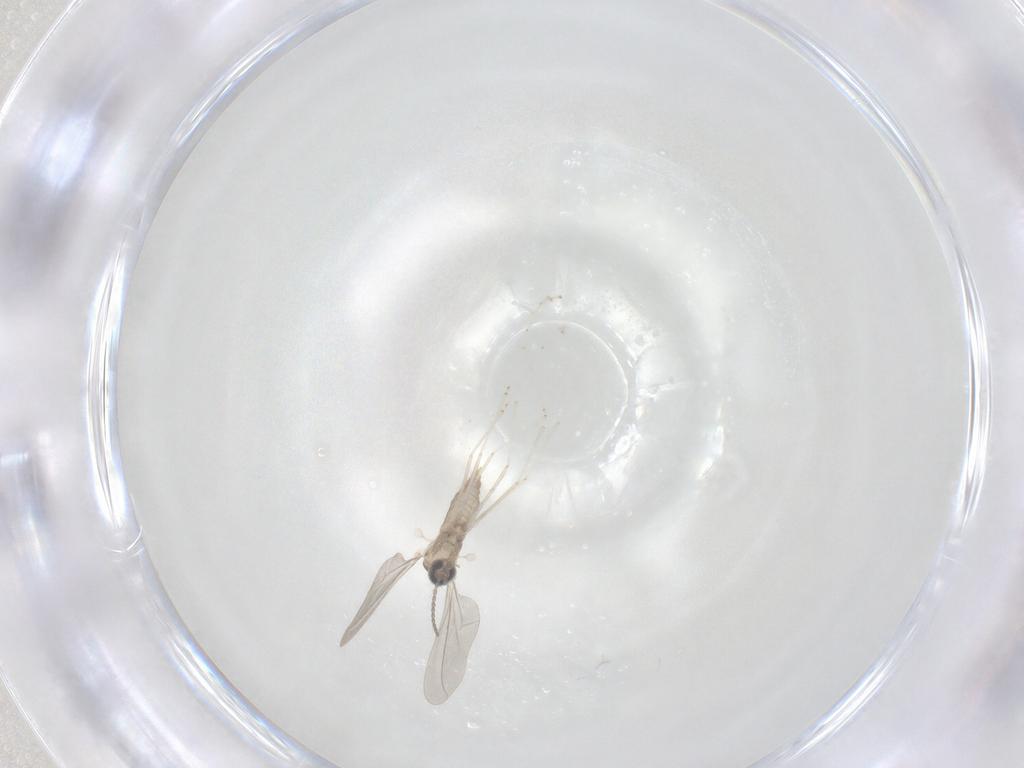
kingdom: Animalia
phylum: Arthropoda
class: Insecta
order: Diptera
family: Cecidomyiidae
